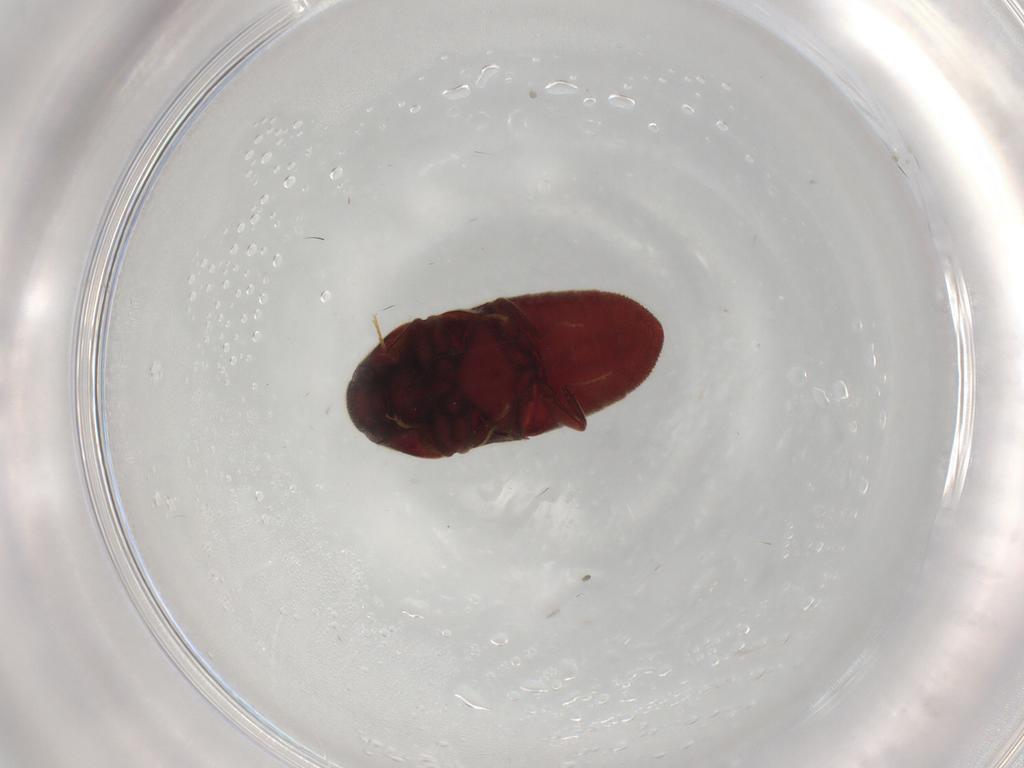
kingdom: Animalia
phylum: Arthropoda
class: Insecta
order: Coleoptera
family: Throscidae
